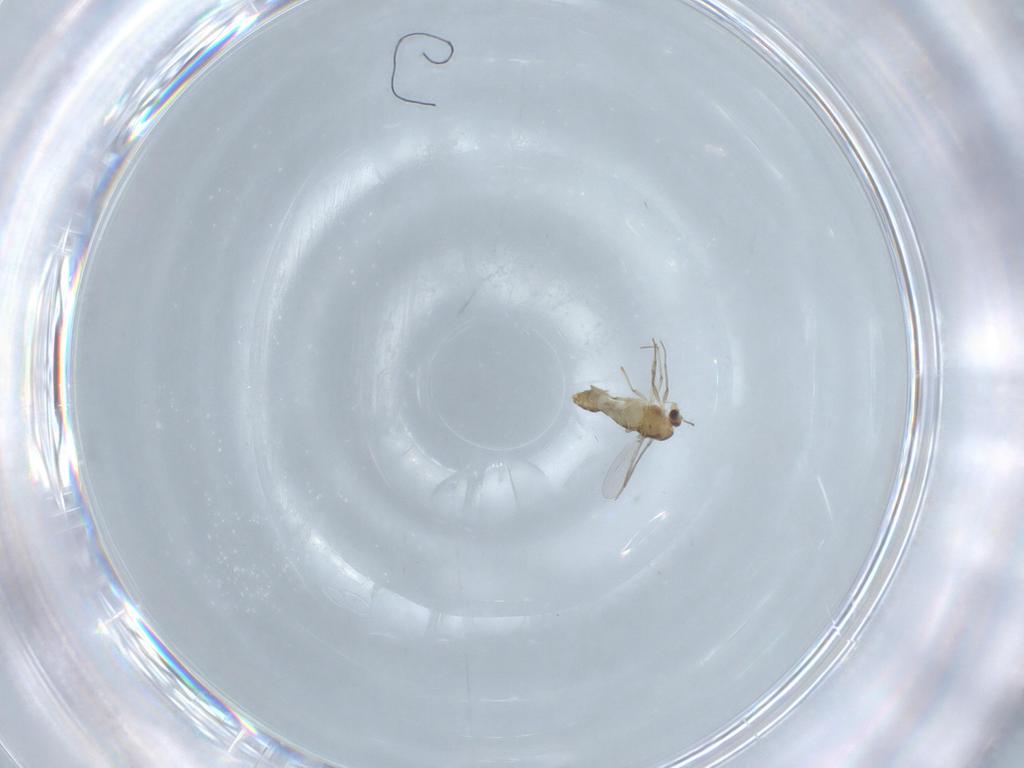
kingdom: Animalia
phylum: Arthropoda
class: Insecta
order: Diptera
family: Chironomidae
